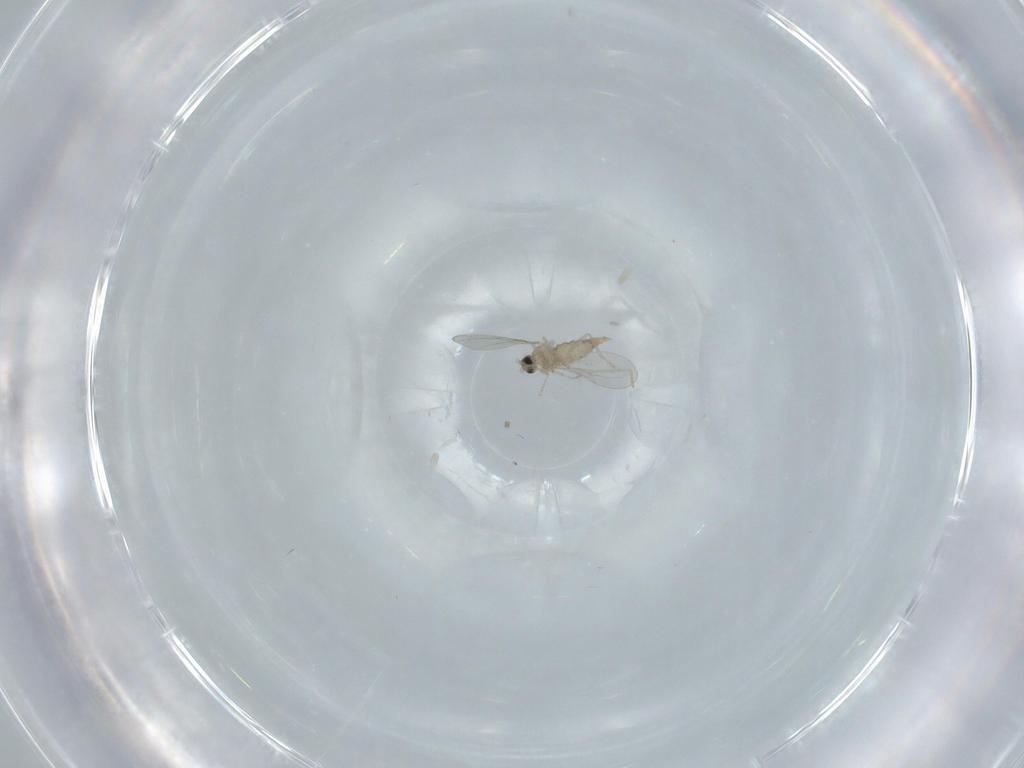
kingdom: Animalia
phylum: Arthropoda
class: Insecta
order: Diptera
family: Cecidomyiidae
